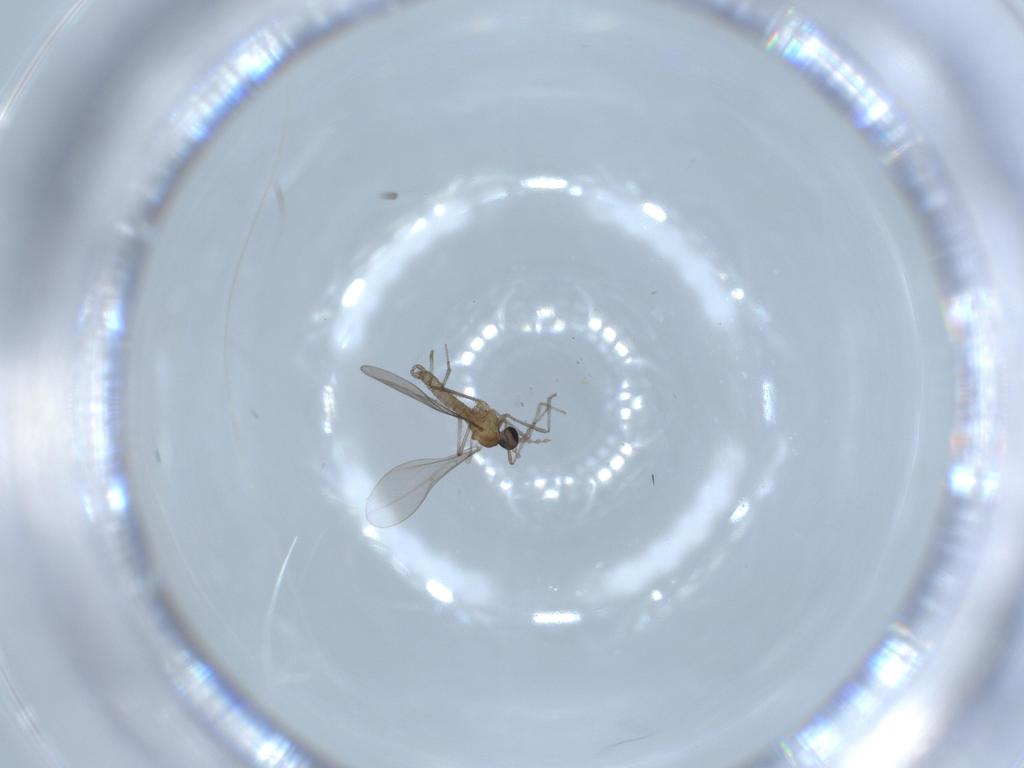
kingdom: Animalia
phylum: Arthropoda
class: Insecta
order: Diptera
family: Cecidomyiidae
